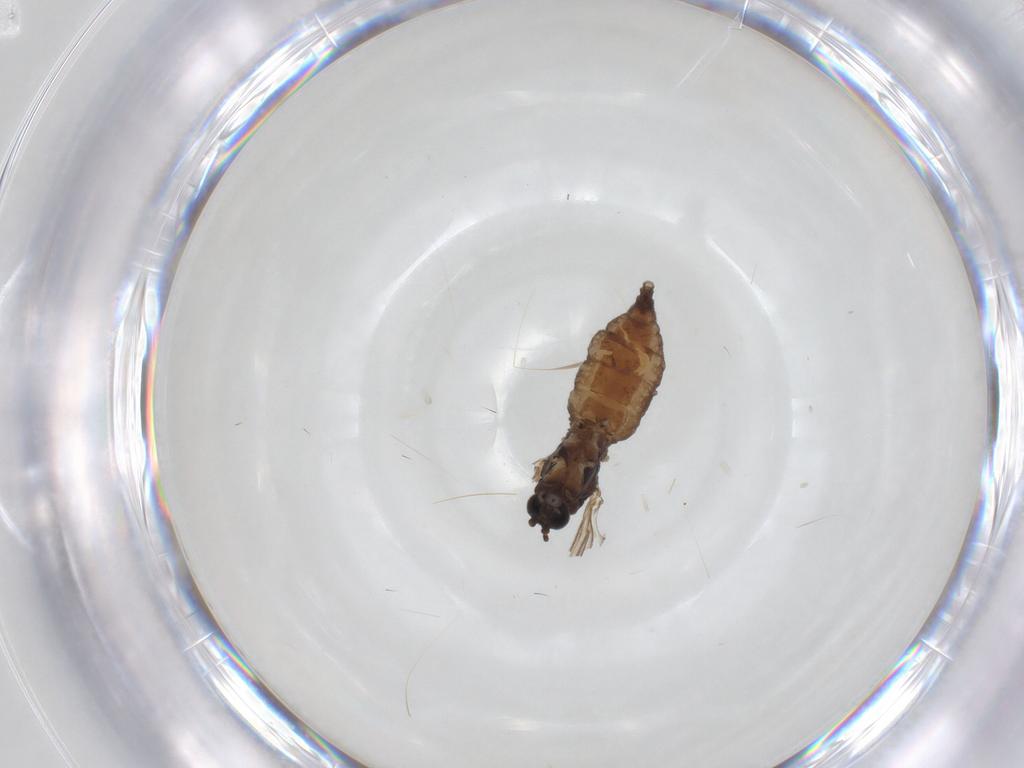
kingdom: Animalia
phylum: Arthropoda
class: Insecta
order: Diptera
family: Sciaridae
